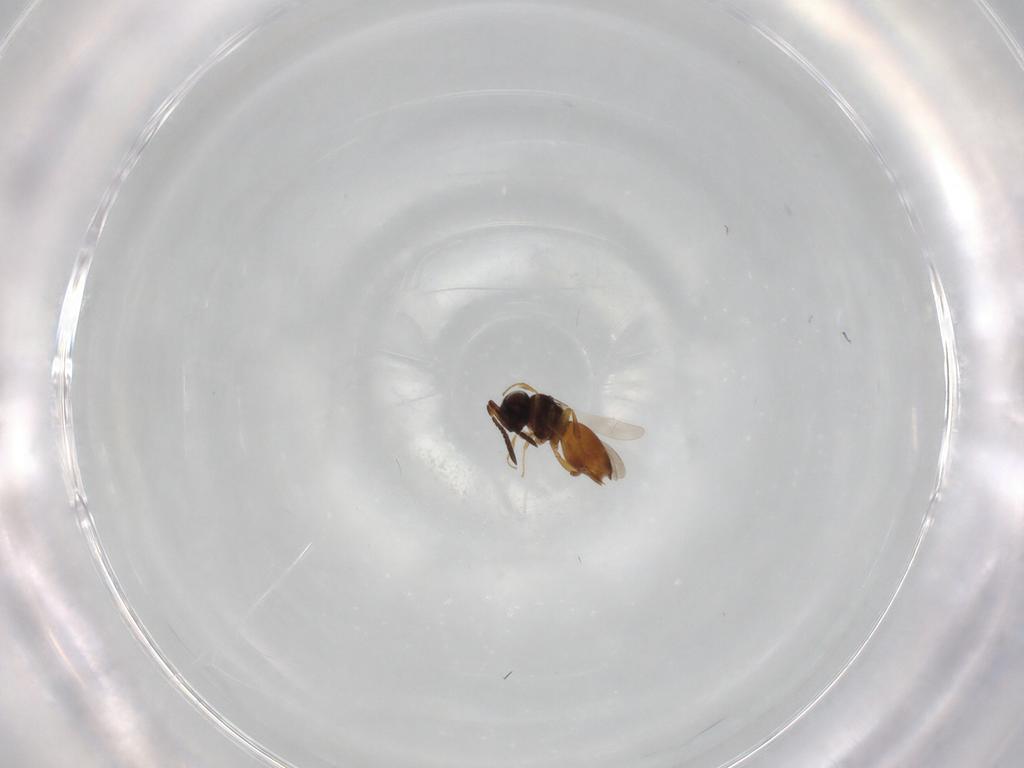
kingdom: Animalia
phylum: Arthropoda
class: Insecta
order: Hymenoptera
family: Ceraphronidae
